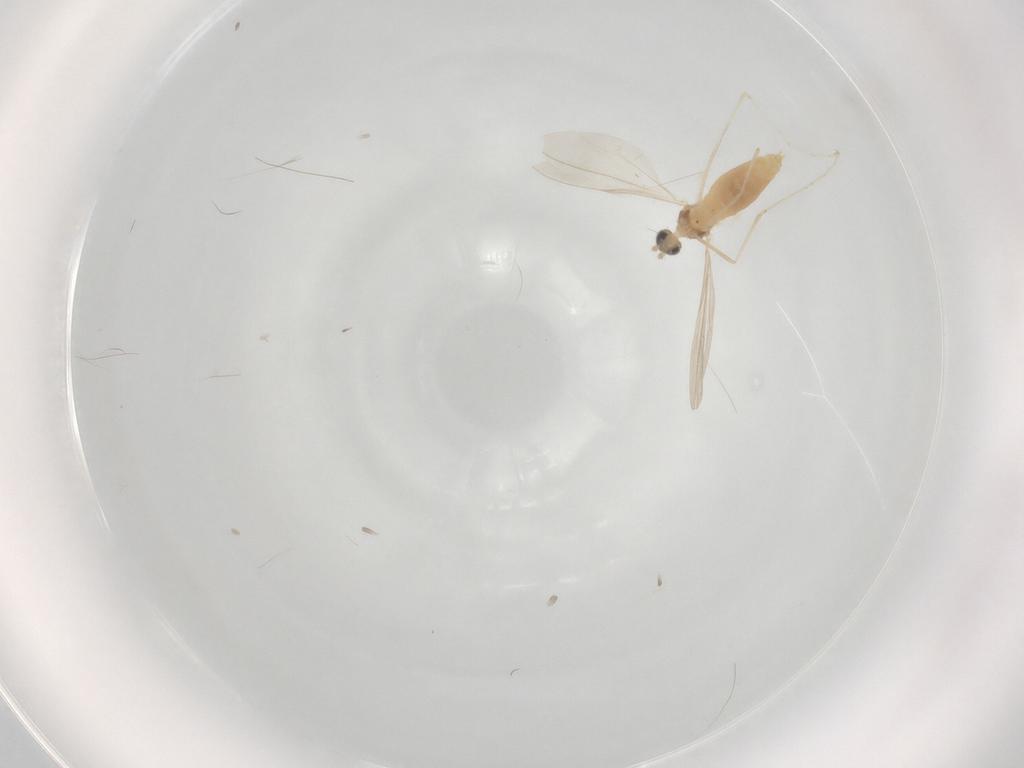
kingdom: Animalia
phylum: Arthropoda
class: Insecta
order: Diptera
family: Cecidomyiidae
